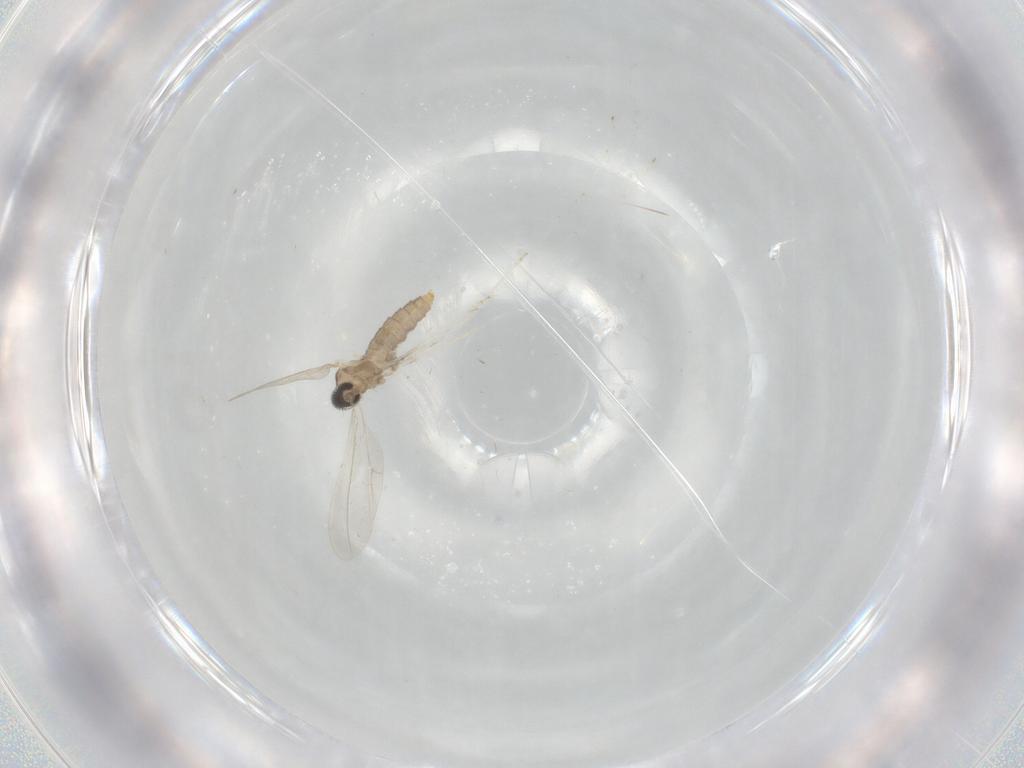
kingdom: Animalia
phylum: Arthropoda
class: Insecta
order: Diptera
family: Cecidomyiidae
